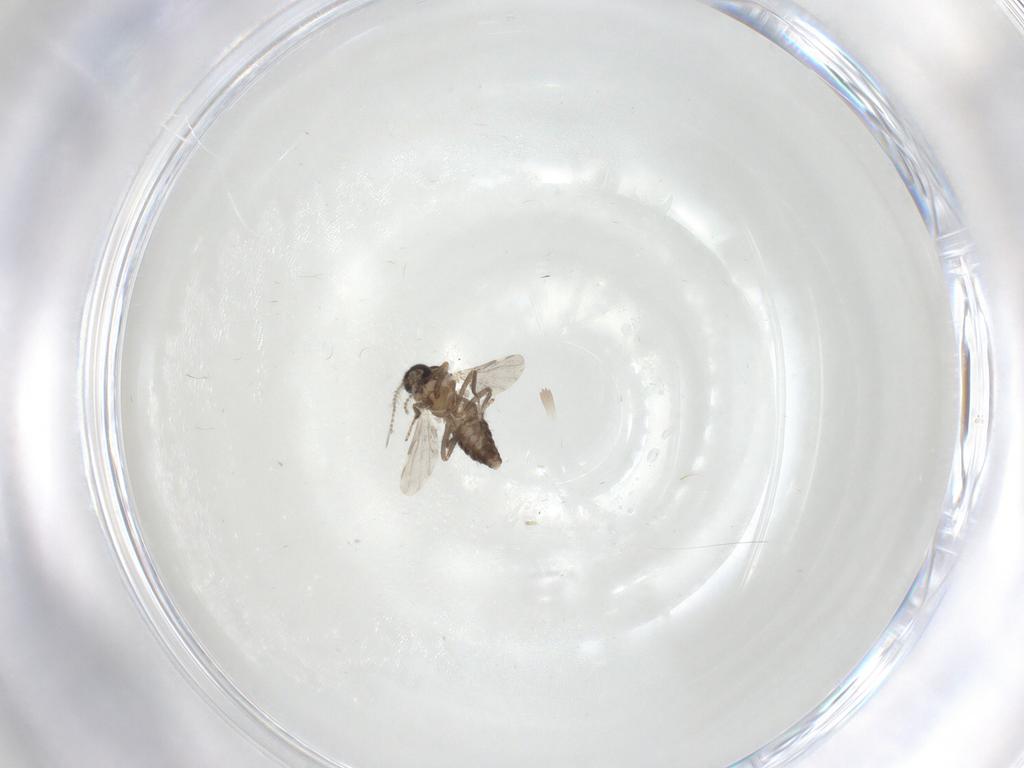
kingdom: Animalia
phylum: Arthropoda
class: Insecta
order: Diptera
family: Ceratopogonidae
